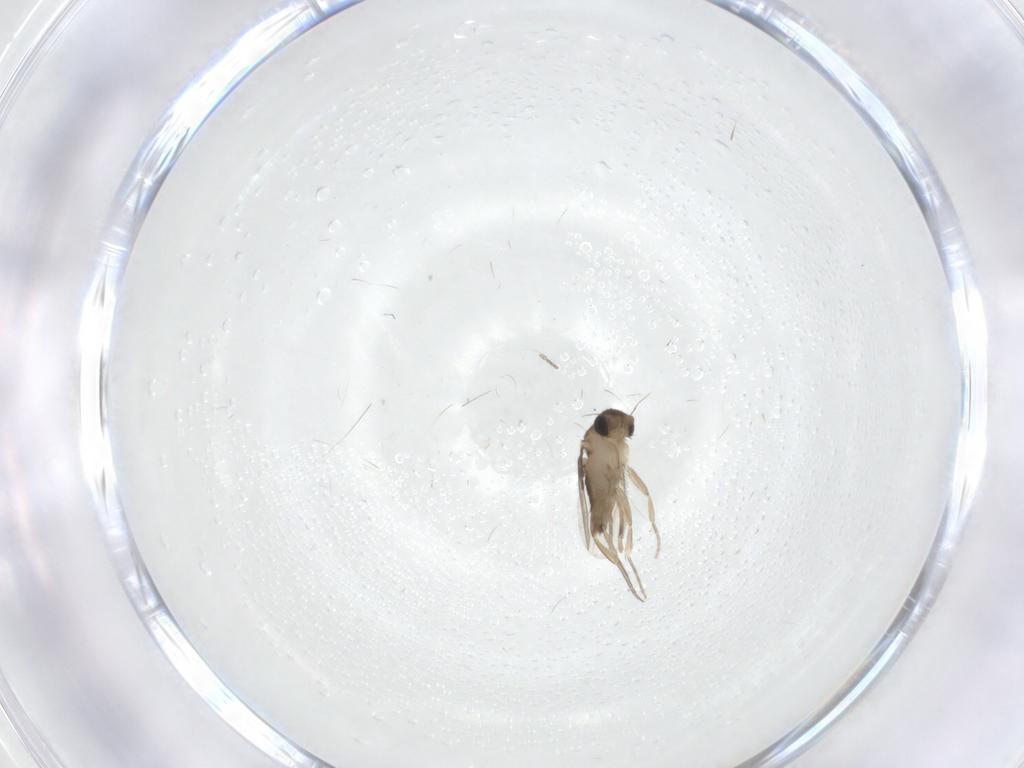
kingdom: Animalia
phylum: Arthropoda
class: Insecta
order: Diptera
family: Phoridae
